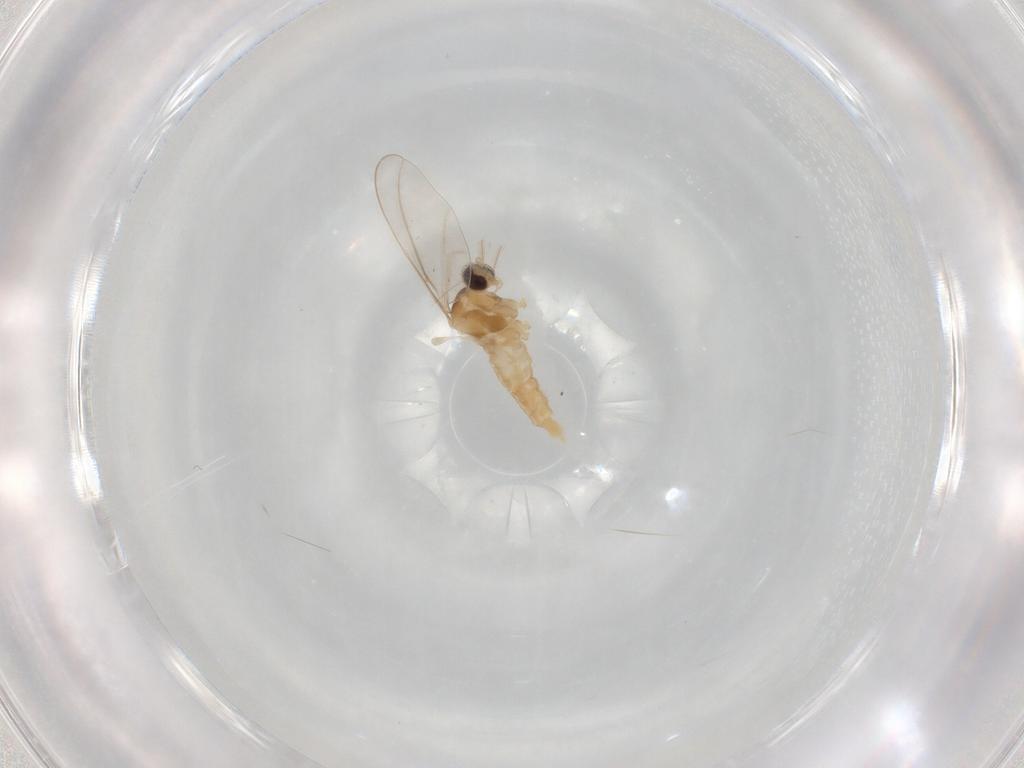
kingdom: Animalia
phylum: Arthropoda
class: Insecta
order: Diptera
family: Cecidomyiidae
